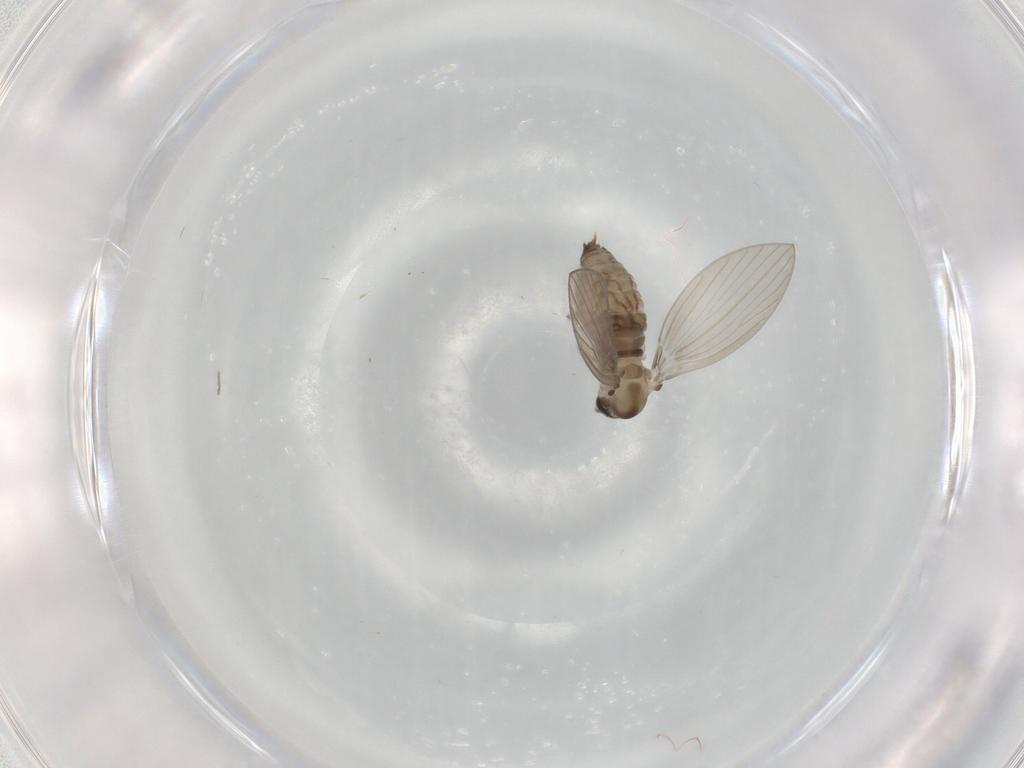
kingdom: Animalia
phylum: Arthropoda
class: Insecta
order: Diptera
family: Psychodidae
